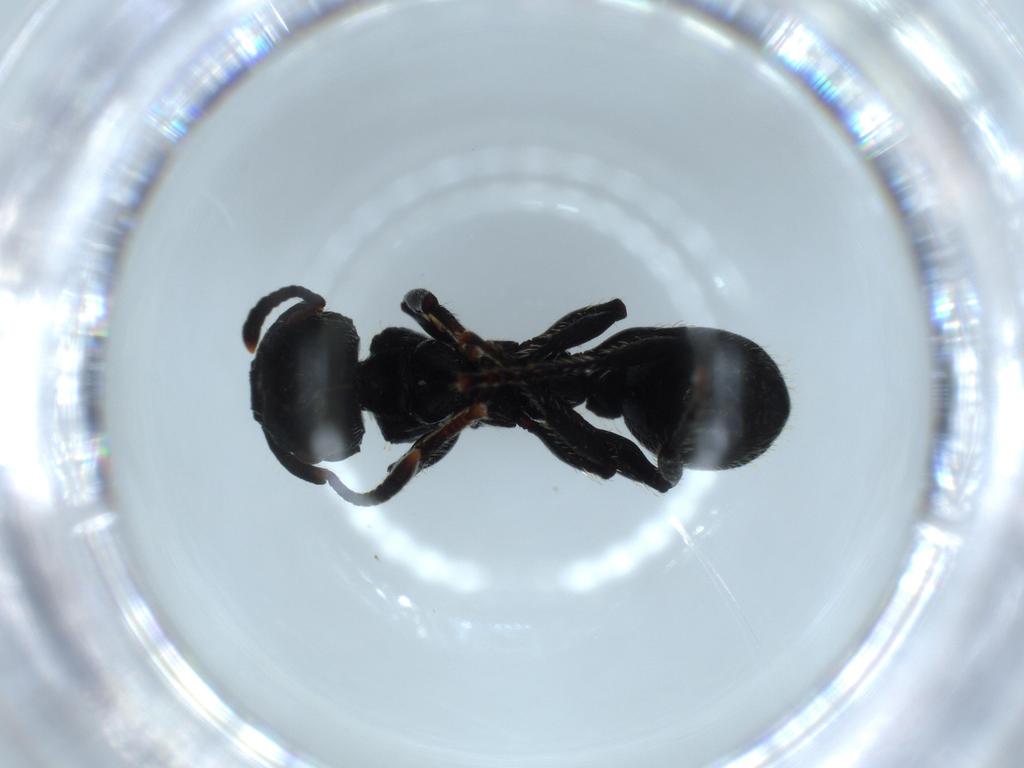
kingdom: Animalia
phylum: Arthropoda
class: Insecta
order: Hymenoptera
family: Formicidae
